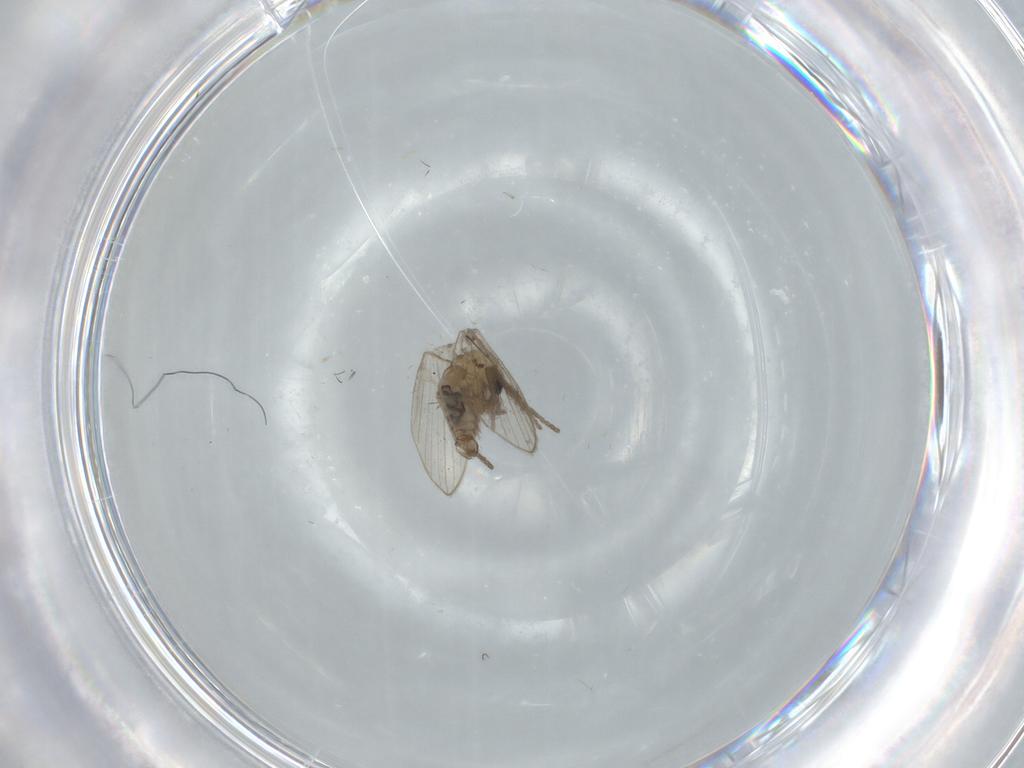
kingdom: Animalia
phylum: Arthropoda
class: Insecta
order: Diptera
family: Psychodidae
